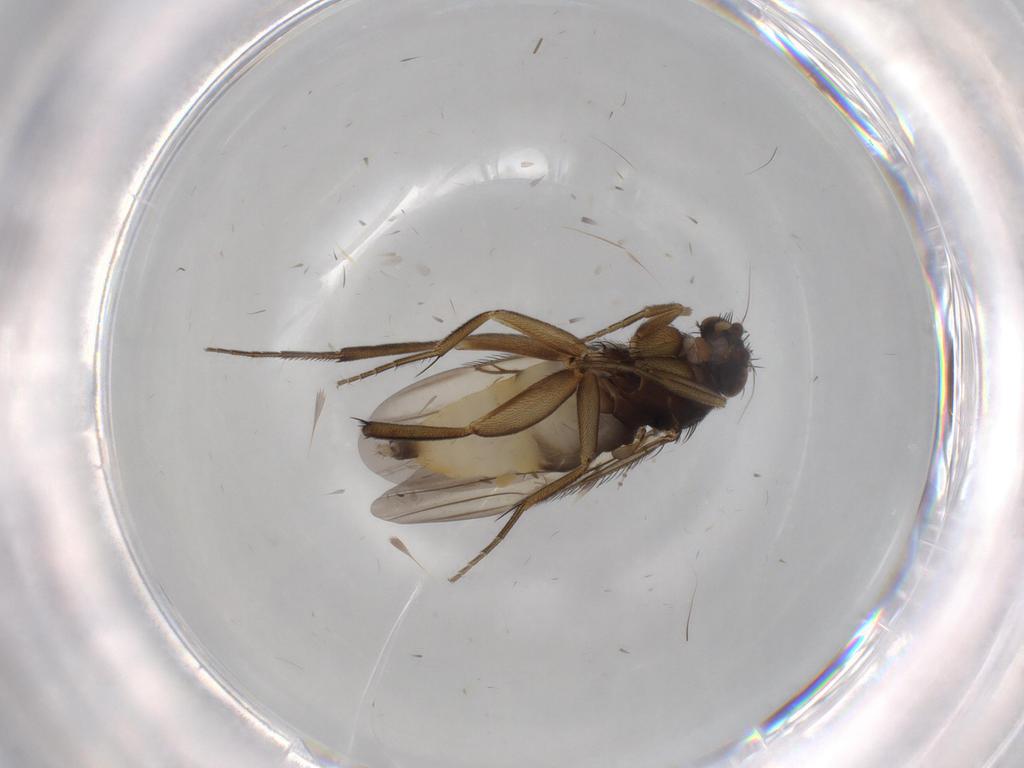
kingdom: Animalia
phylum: Arthropoda
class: Insecta
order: Diptera
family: Phoridae
